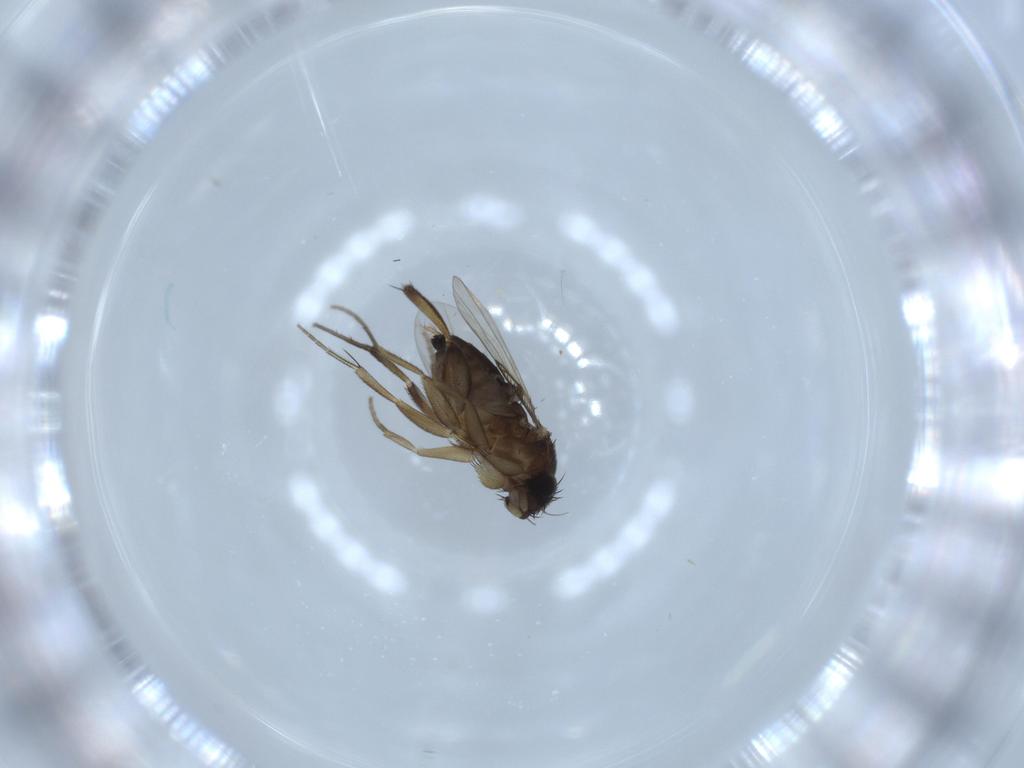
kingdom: Animalia
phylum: Arthropoda
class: Insecta
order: Diptera
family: Phoridae
